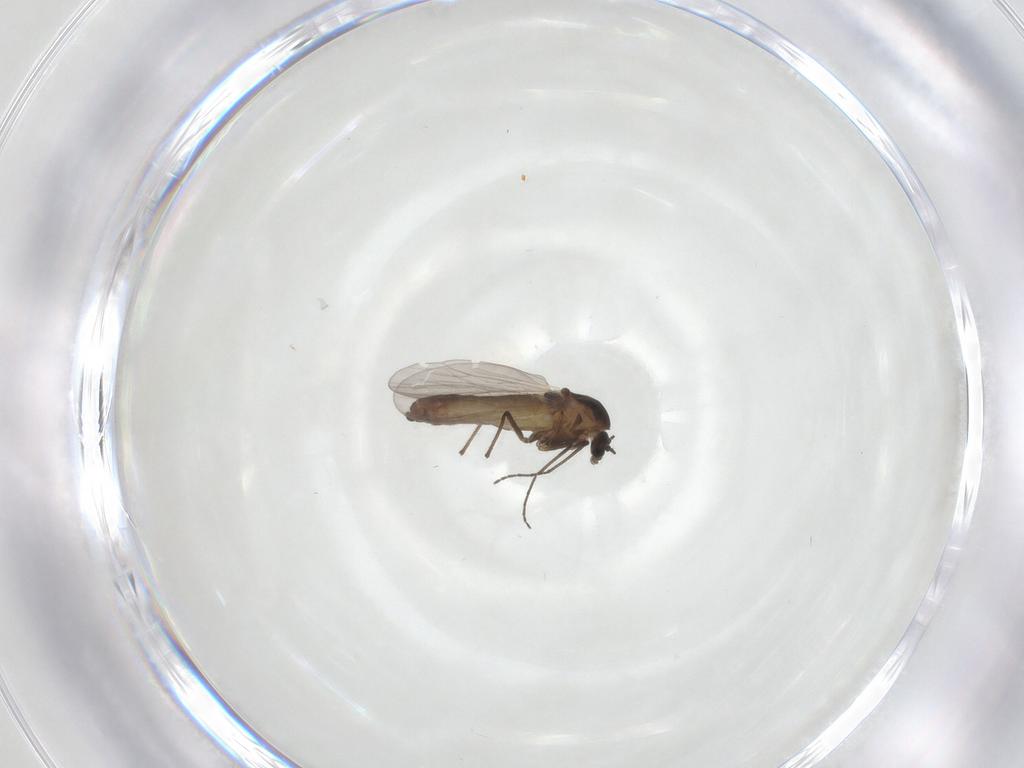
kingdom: Animalia
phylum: Arthropoda
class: Insecta
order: Diptera
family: Chironomidae
